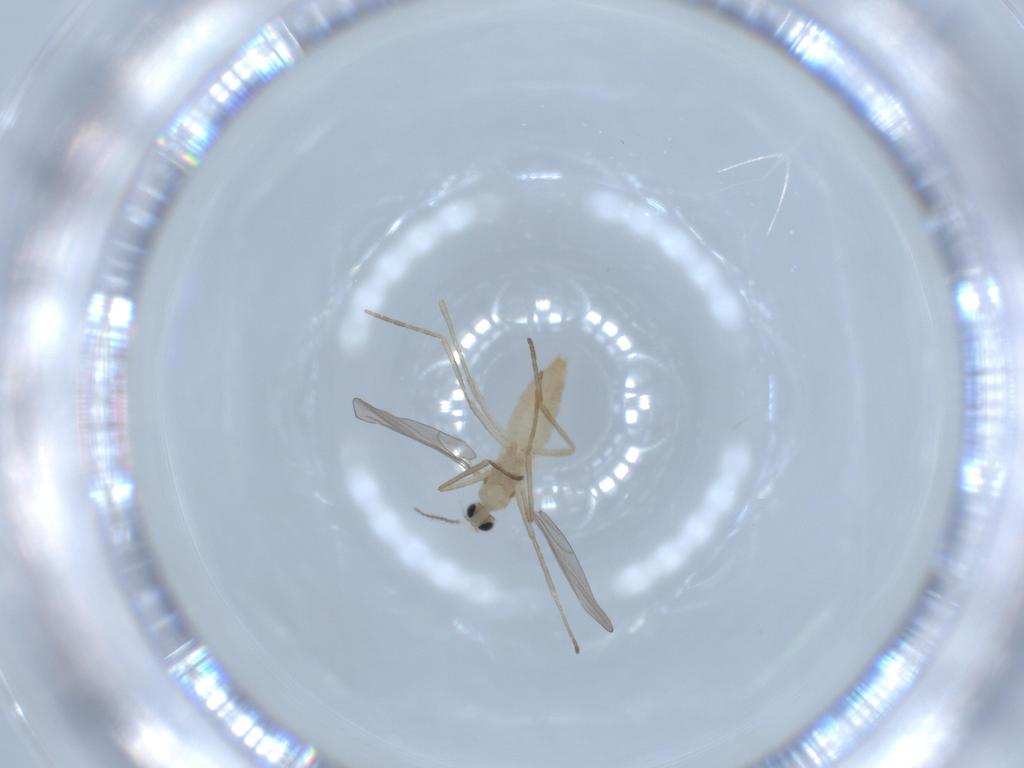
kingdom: Animalia
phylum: Arthropoda
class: Insecta
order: Diptera
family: Cecidomyiidae
